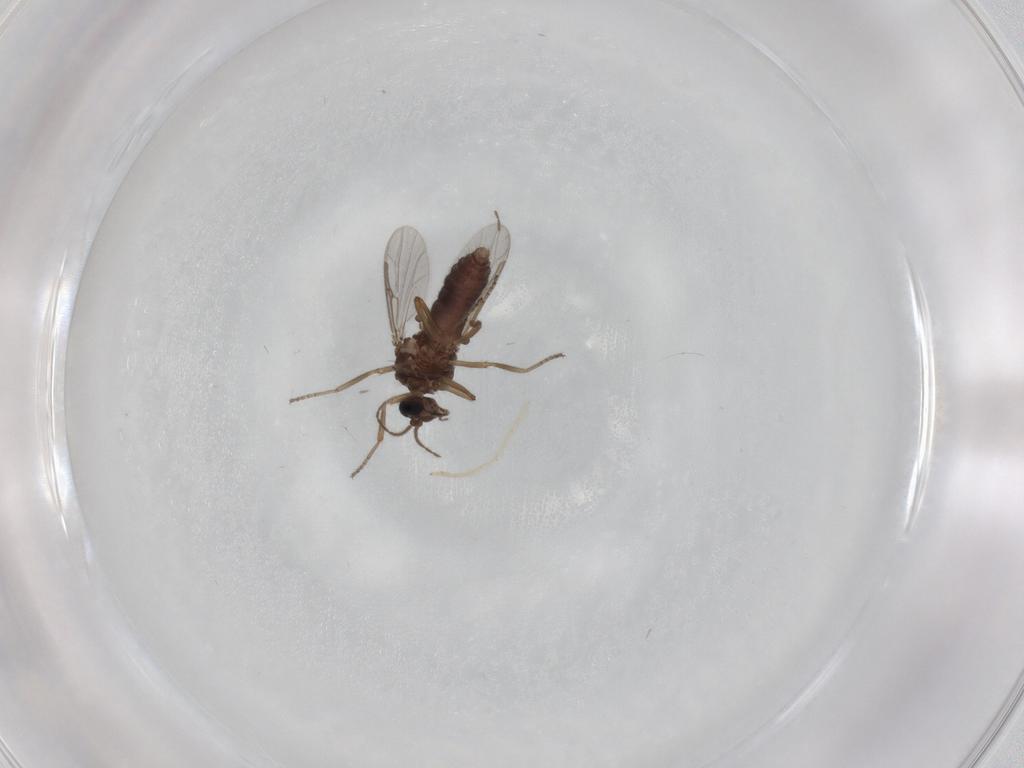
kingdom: Animalia
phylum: Arthropoda
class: Insecta
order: Diptera
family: Ceratopogonidae
